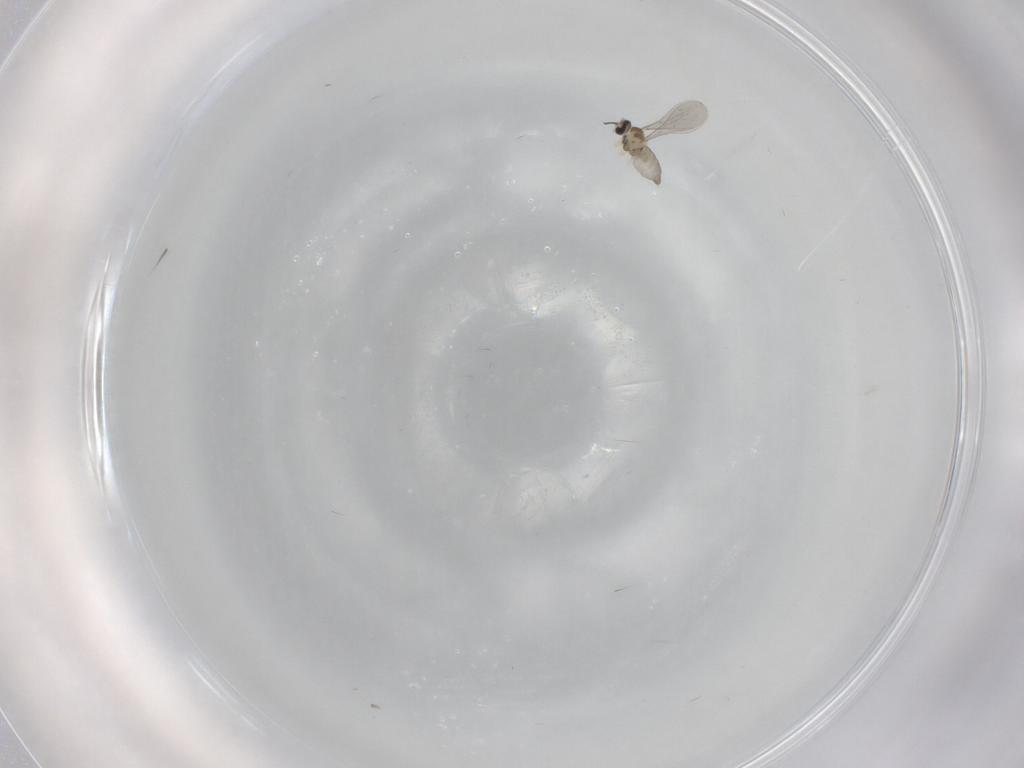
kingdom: Animalia
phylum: Arthropoda
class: Insecta
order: Diptera
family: Cecidomyiidae
